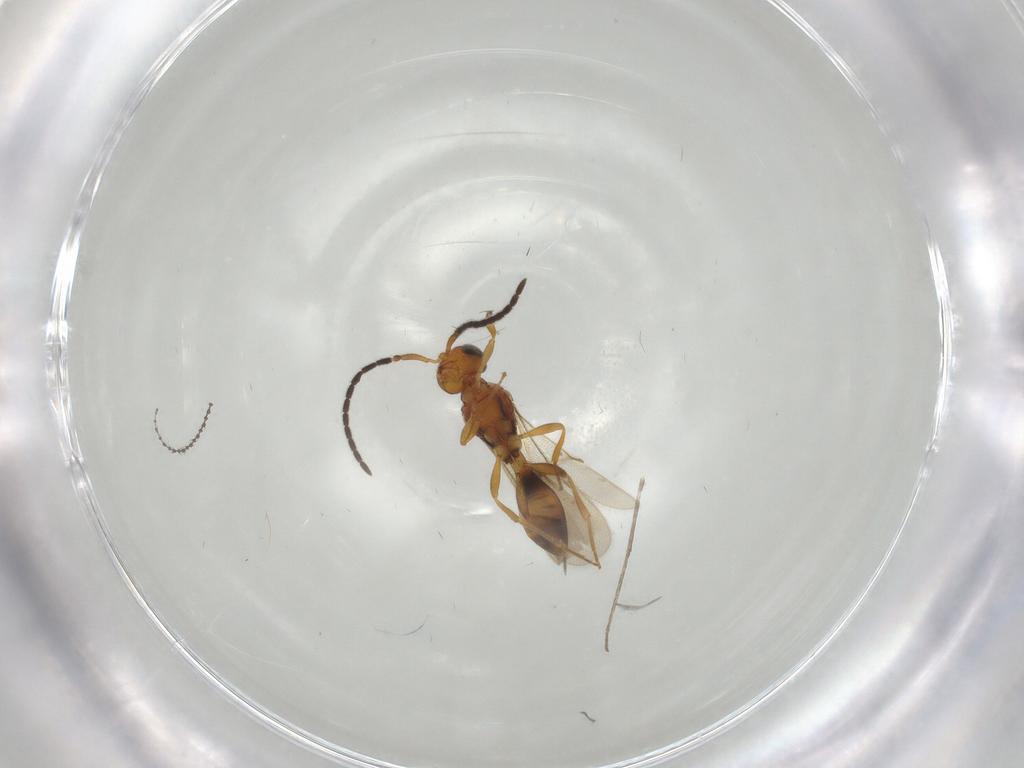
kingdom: Animalia
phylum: Arthropoda
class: Insecta
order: Hymenoptera
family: Scelionidae
